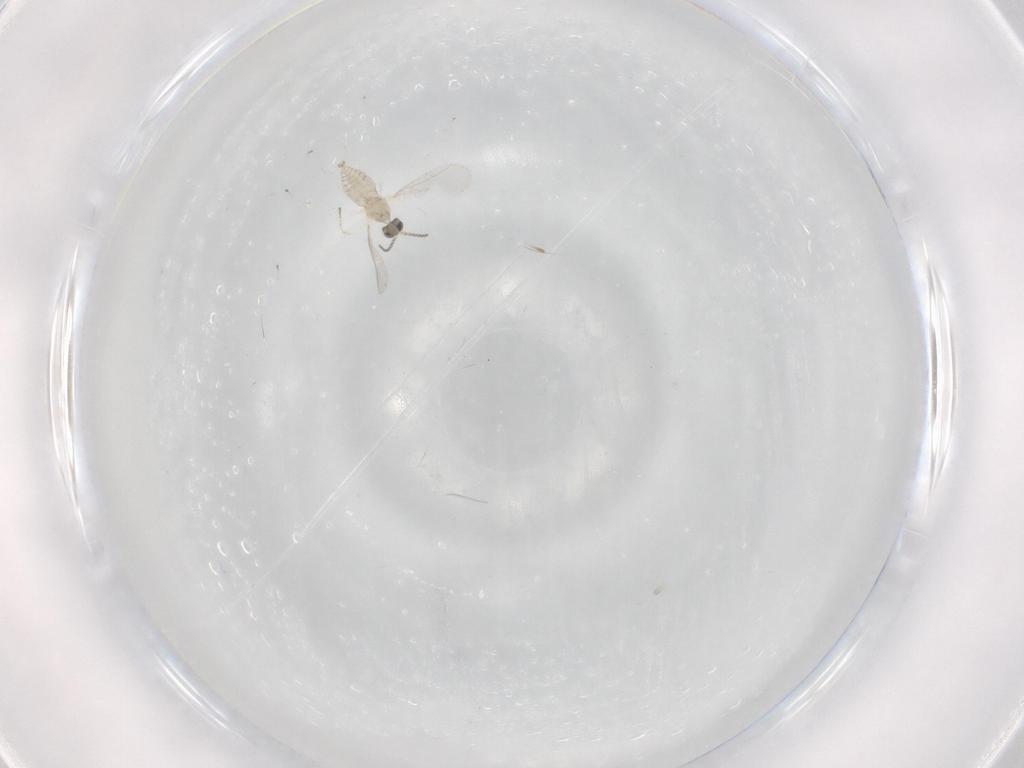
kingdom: Animalia
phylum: Arthropoda
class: Insecta
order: Diptera
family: Cecidomyiidae
